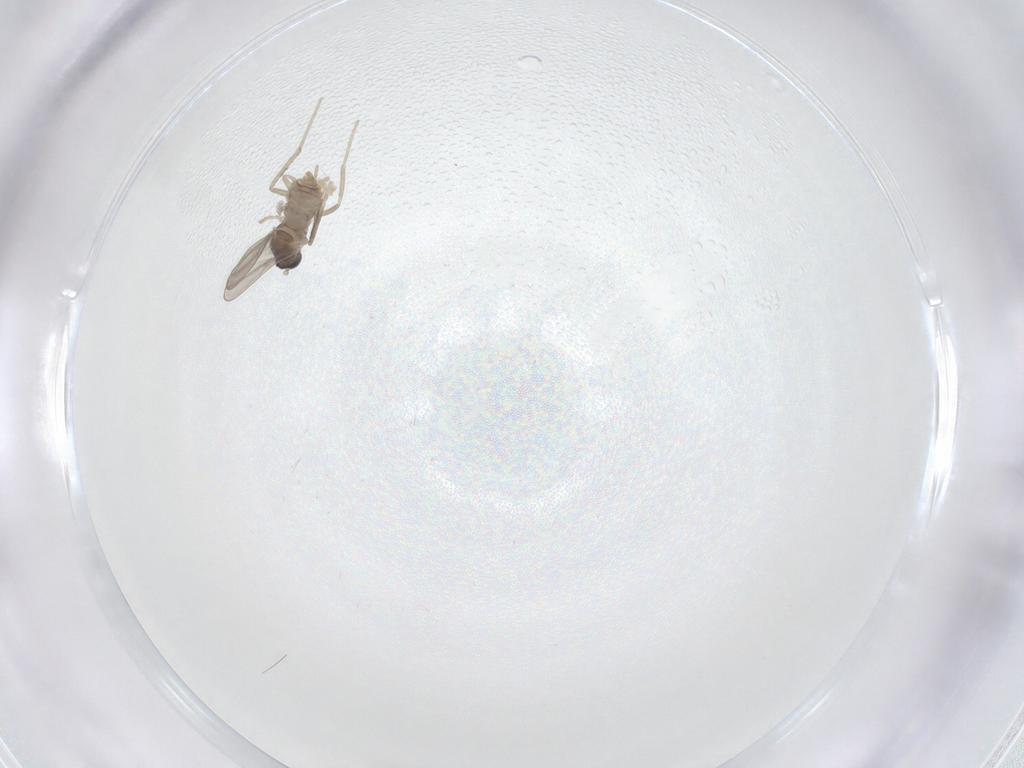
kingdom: Animalia
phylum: Arthropoda
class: Insecta
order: Diptera
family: Cecidomyiidae
